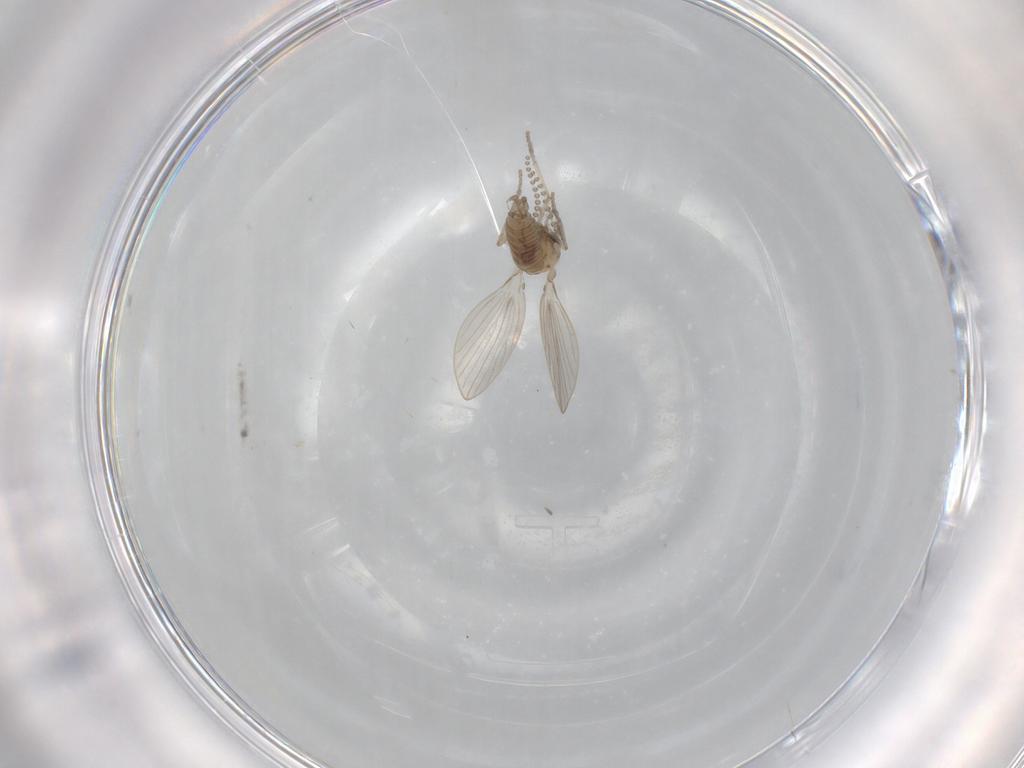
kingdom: Animalia
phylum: Arthropoda
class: Insecta
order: Diptera
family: Psychodidae
